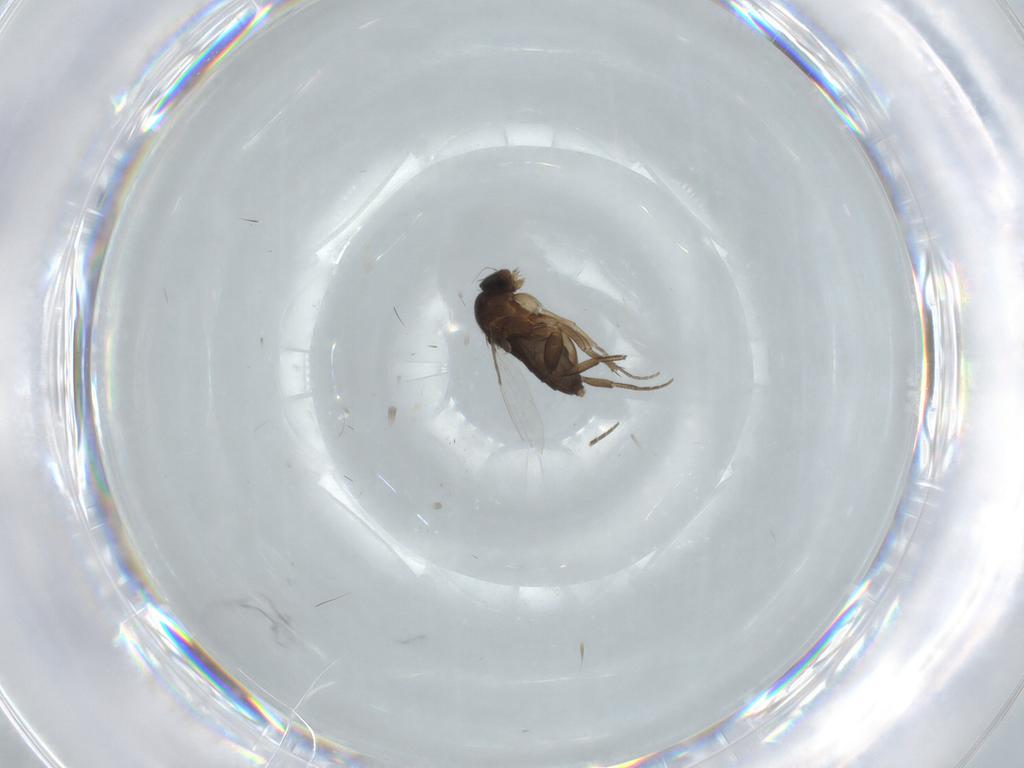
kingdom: Animalia
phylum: Arthropoda
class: Insecta
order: Diptera
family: Phoridae
